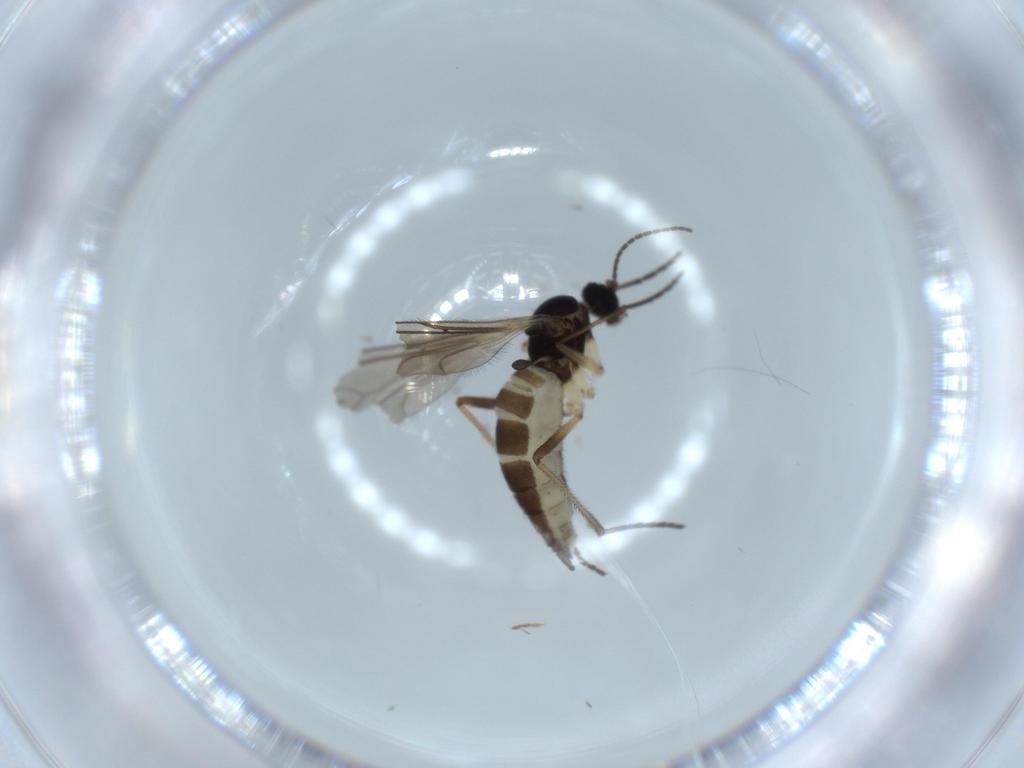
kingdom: Animalia
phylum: Arthropoda
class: Insecta
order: Diptera
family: Sciaridae
